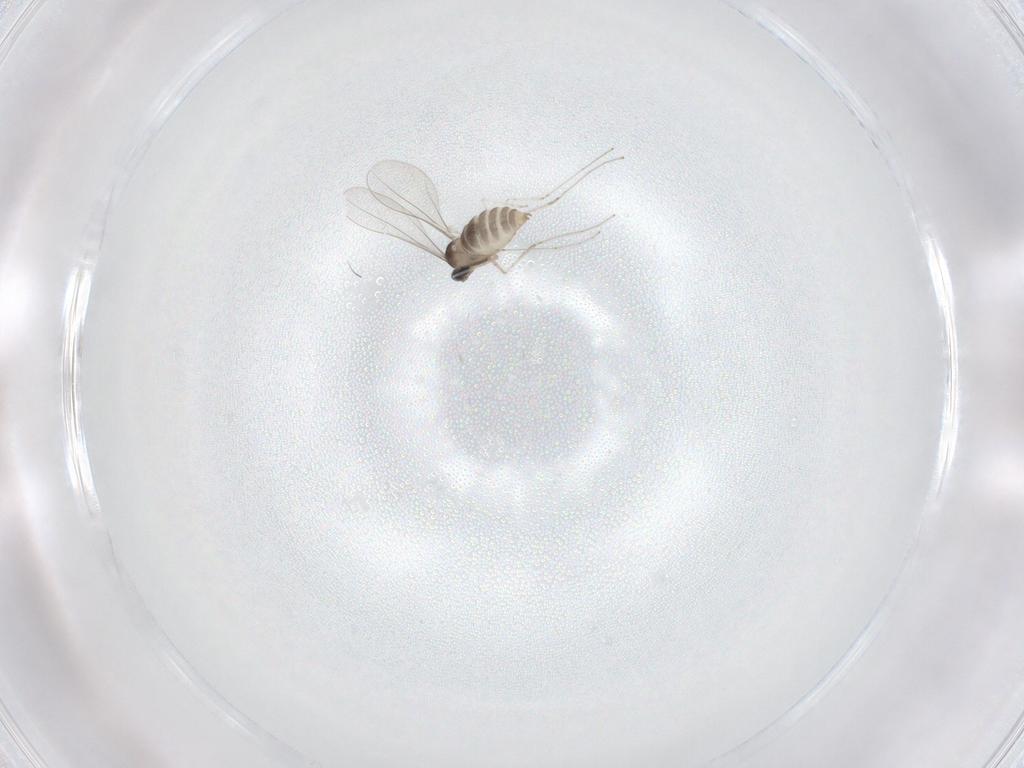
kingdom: Animalia
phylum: Arthropoda
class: Insecta
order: Diptera
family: Cecidomyiidae
